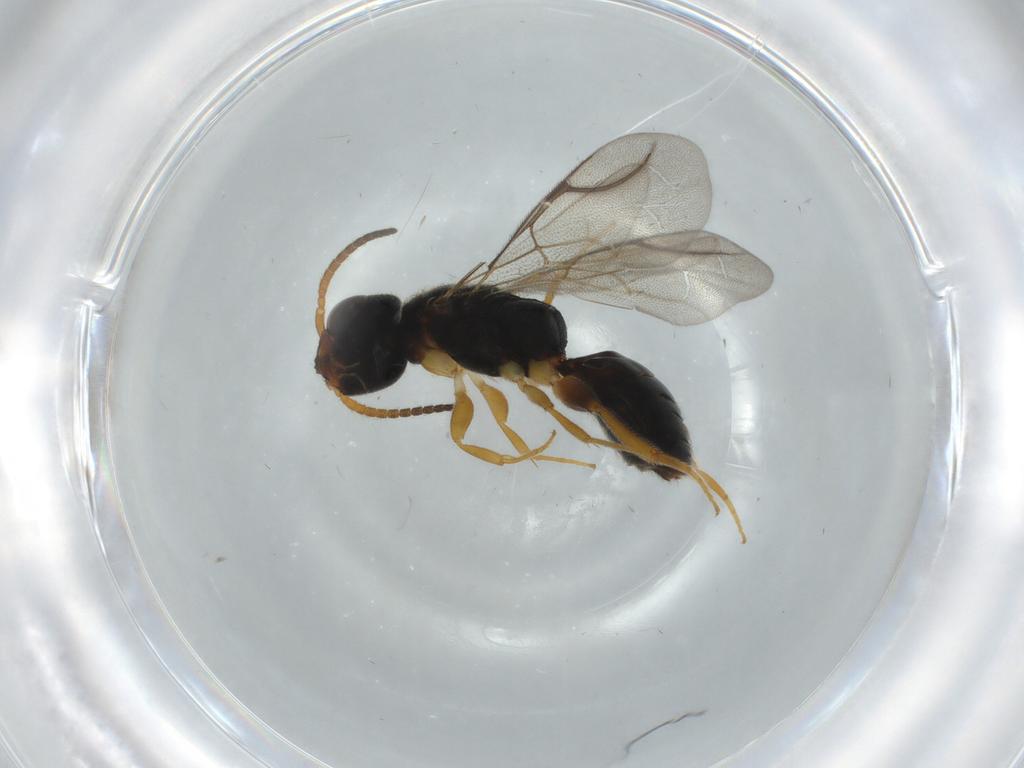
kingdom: Animalia
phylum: Arthropoda
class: Insecta
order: Hymenoptera
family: Bethylidae
